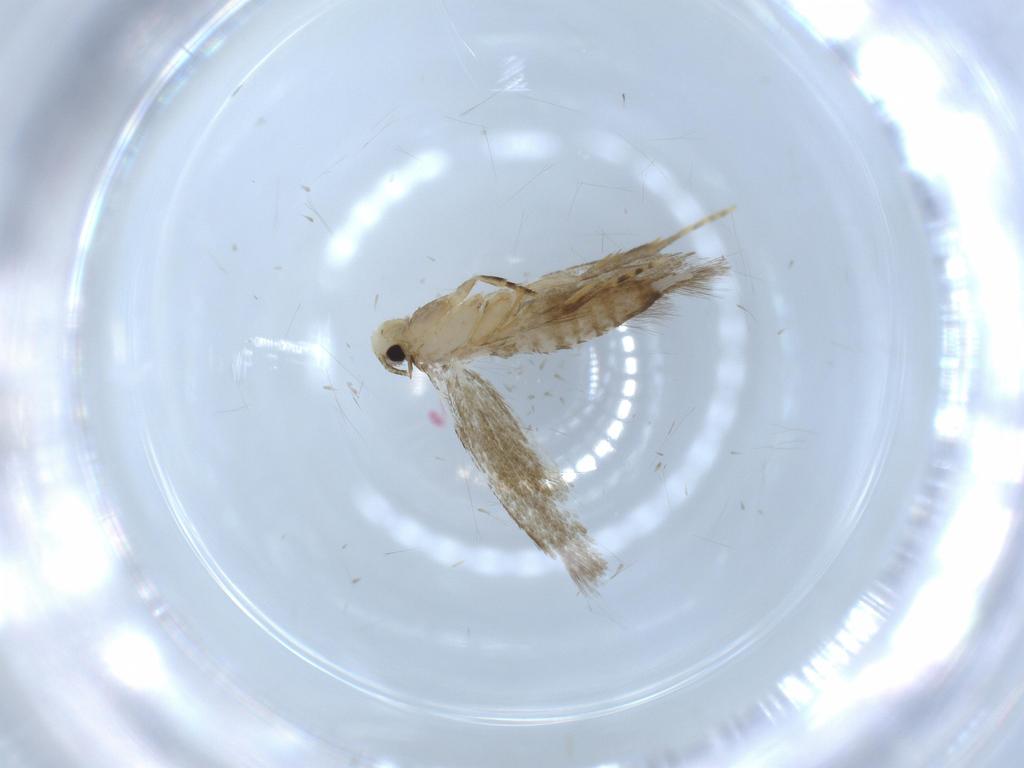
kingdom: Animalia
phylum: Arthropoda
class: Insecta
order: Lepidoptera
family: Tineidae
